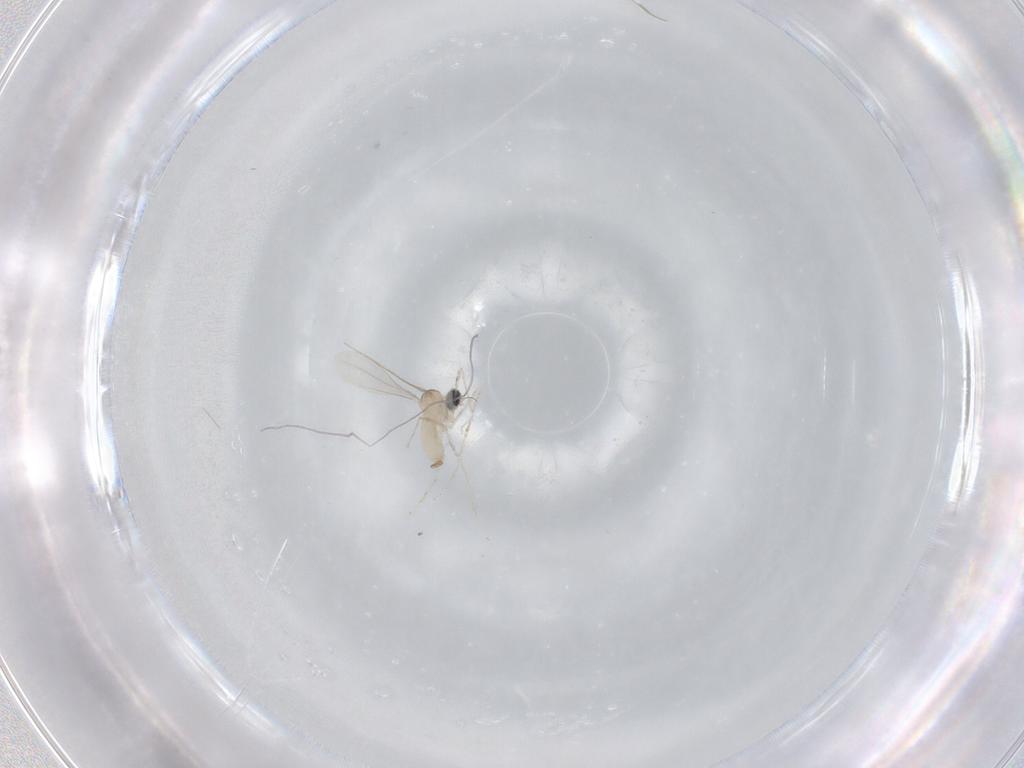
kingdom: Animalia
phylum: Arthropoda
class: Insecta
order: Diptera
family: Cecidomyiidae
